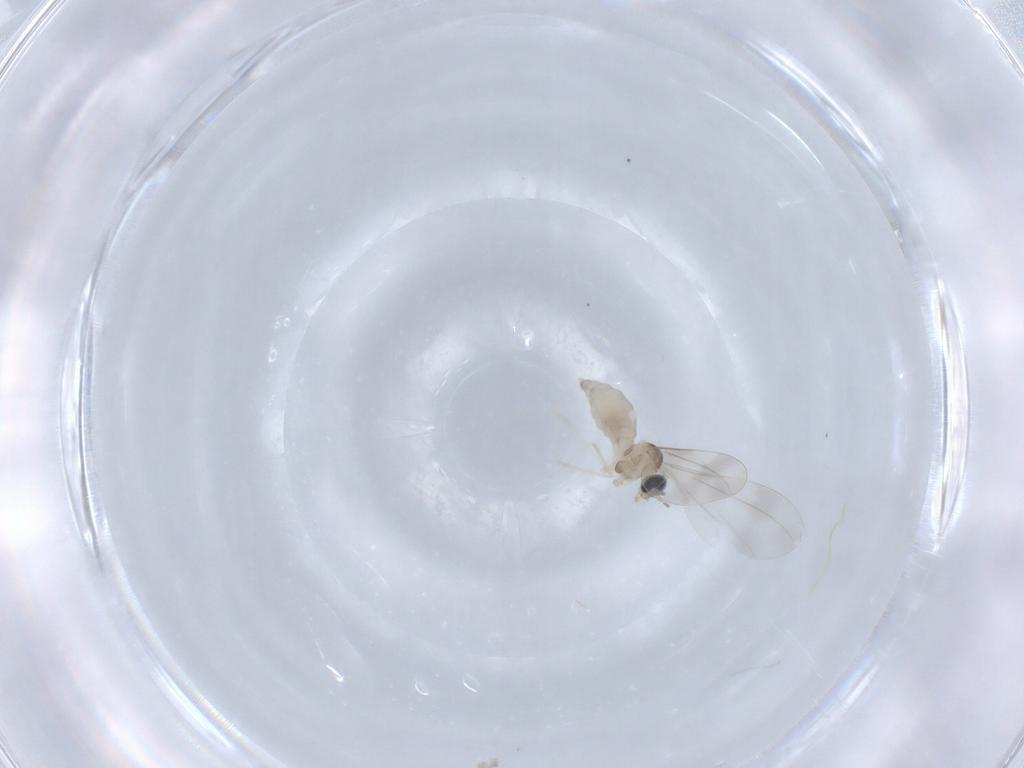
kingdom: Animalia
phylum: Arthropoda
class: Insecta
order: Diptera
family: Cecidomyiidae
